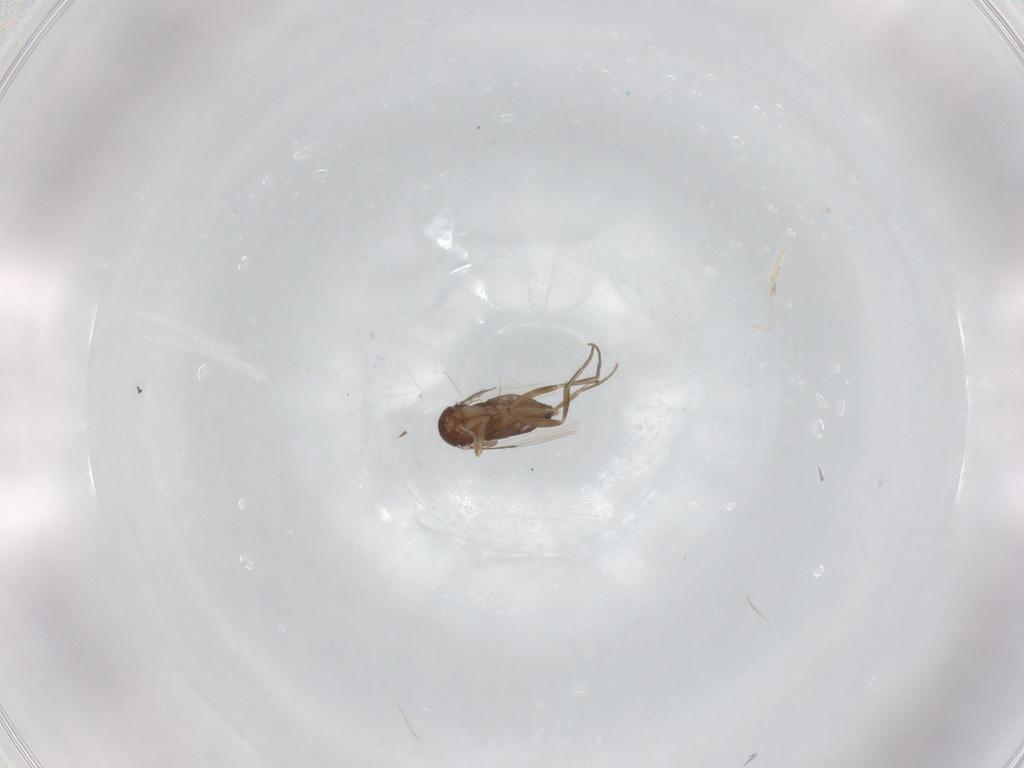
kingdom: Animalia
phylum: Arthropoda
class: Insecta
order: Diptera
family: Phoridae
